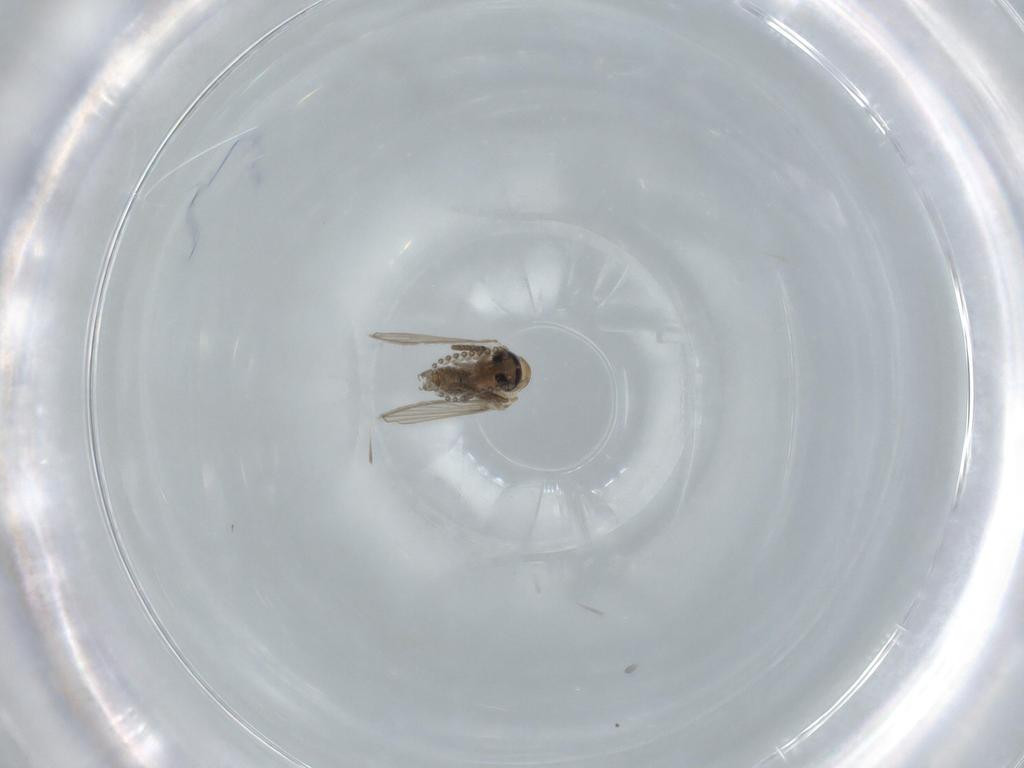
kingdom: Animalia
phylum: Arthropoda
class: Insecta
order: Diptera
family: Psychodidae
